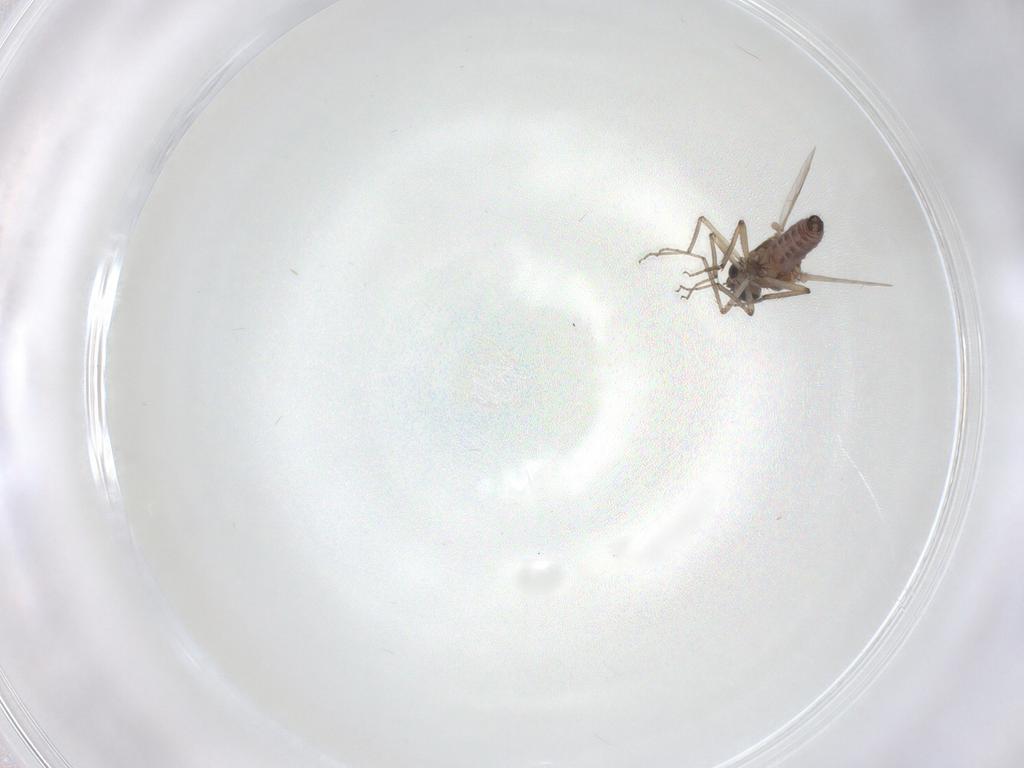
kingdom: Animalia
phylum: Arthropoda
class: Insecta
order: Diptera
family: Ceratopogonidae
